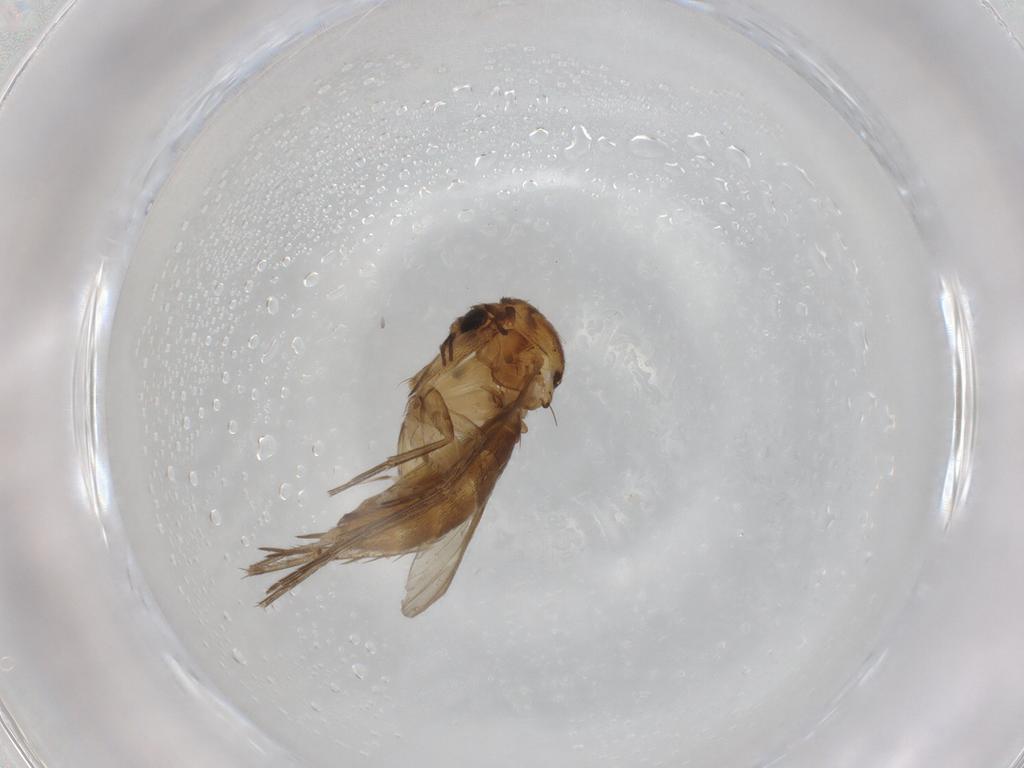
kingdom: Animalia
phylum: Arthropoda
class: Insecta
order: Diptera
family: Mycetophilidae
